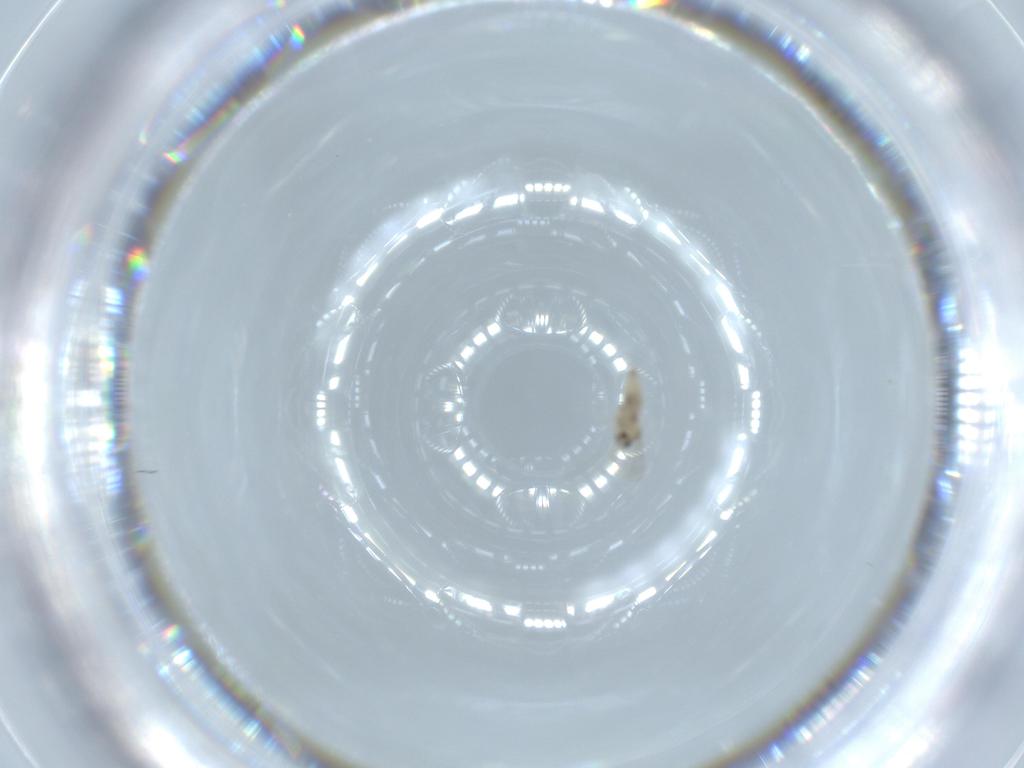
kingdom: Animalia
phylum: Arthropoda
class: Insecta
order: Diptera
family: Cecidomyiidae
